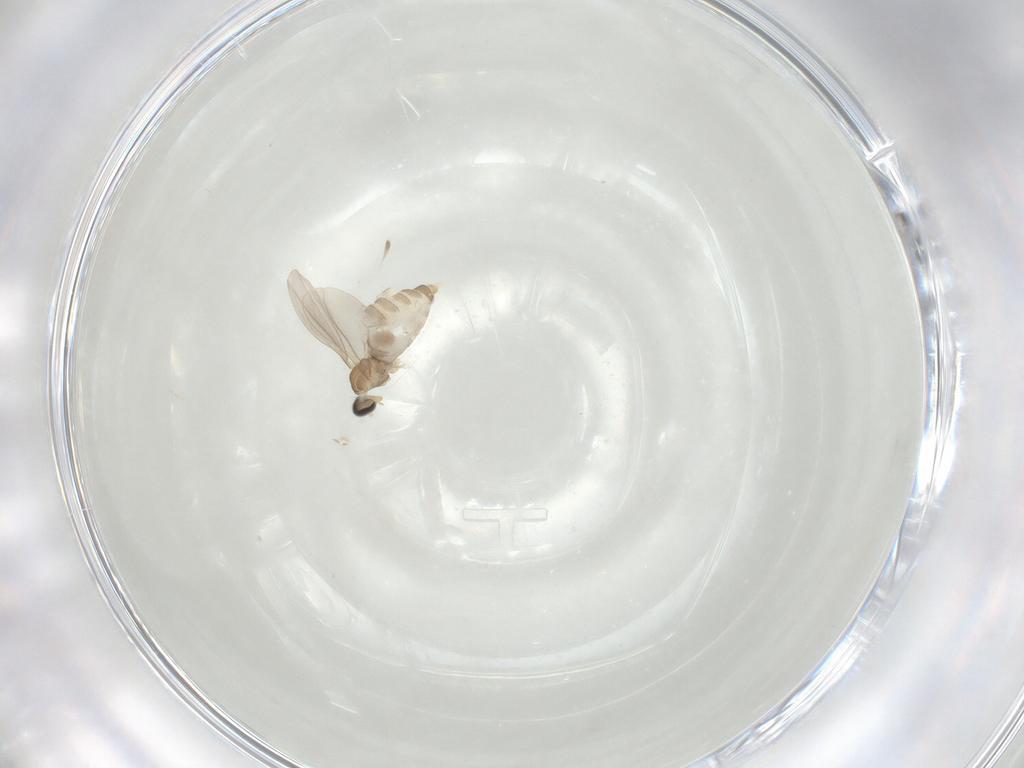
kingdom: Animalia
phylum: Arthropoda
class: Insecta
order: Diptera
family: Cecidomyiidae
